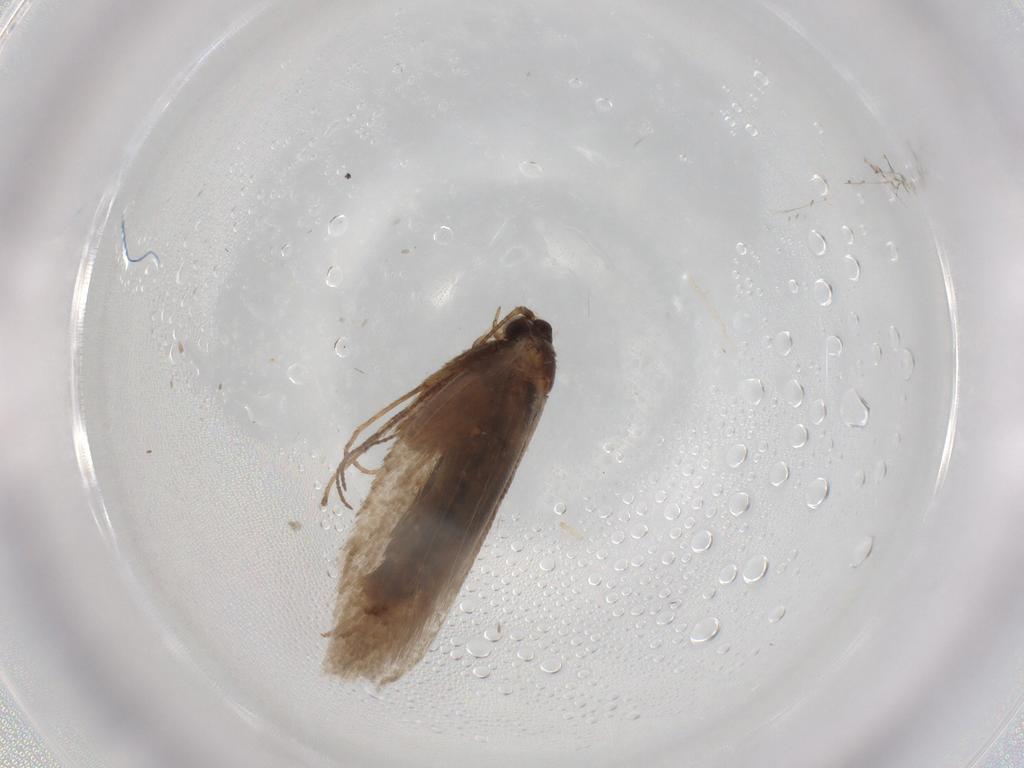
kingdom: Animalia
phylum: Arthropoda
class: Insecta
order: Lepidoptera
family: Nepticulidae
